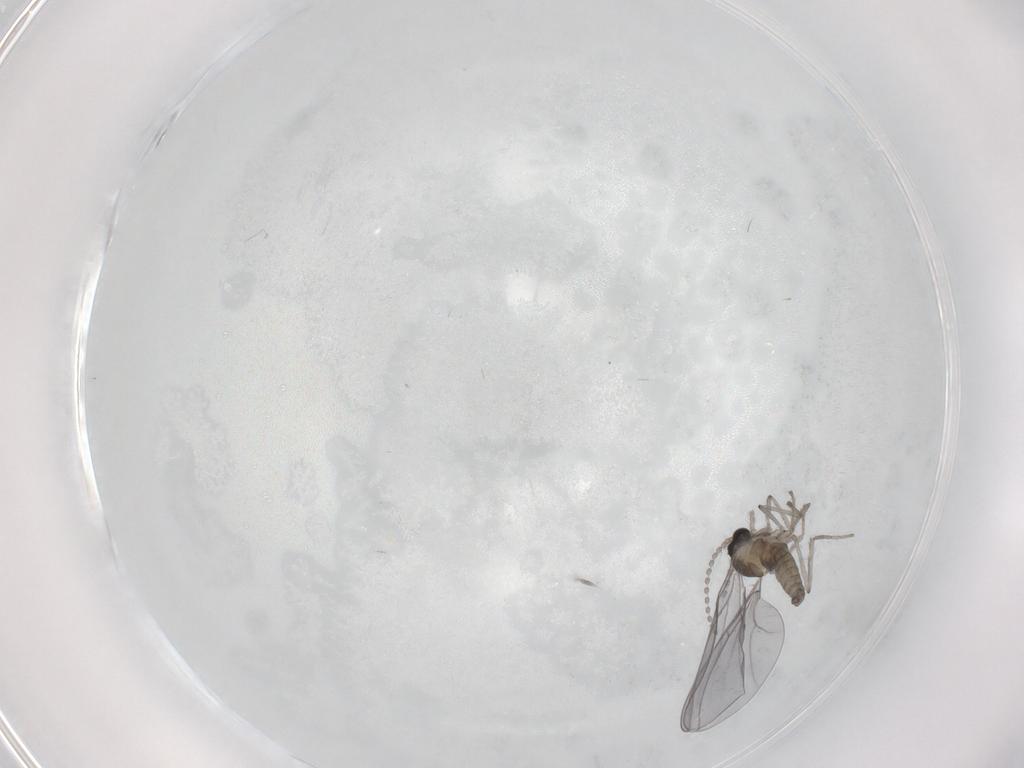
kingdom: Animalia
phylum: Arthropoda
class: Insecta
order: Diptera
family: Cecidomyiidae
